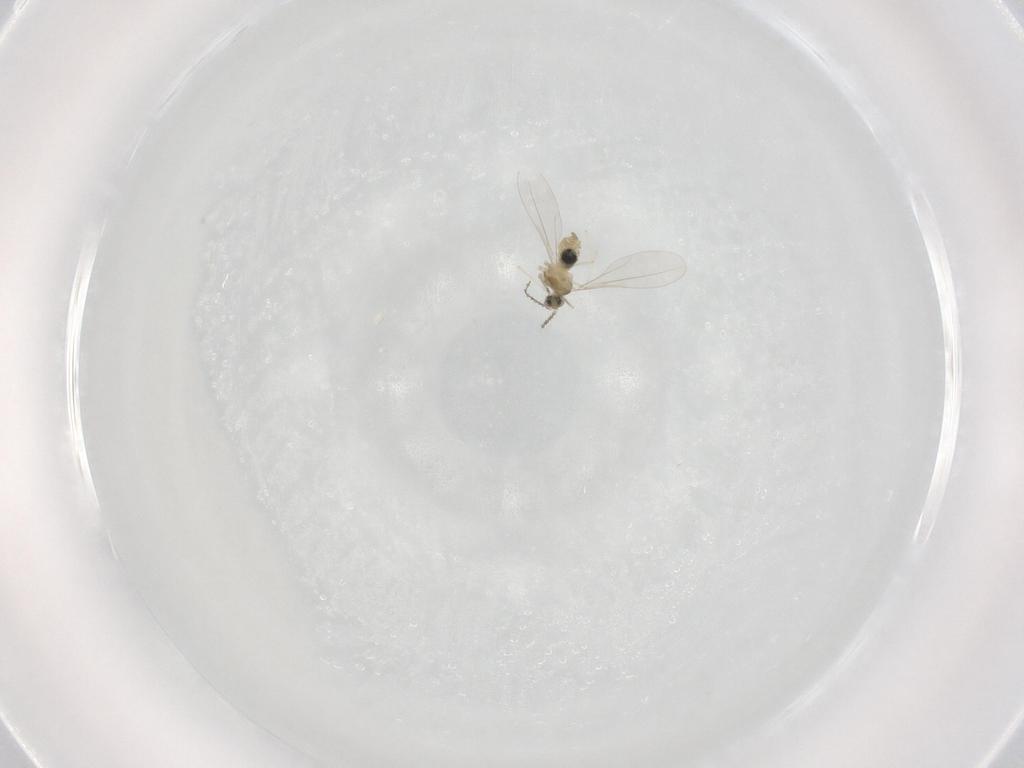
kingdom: Animalia
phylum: Arthropoda
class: Insecta
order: Diptera
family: Cecidomyiidae
